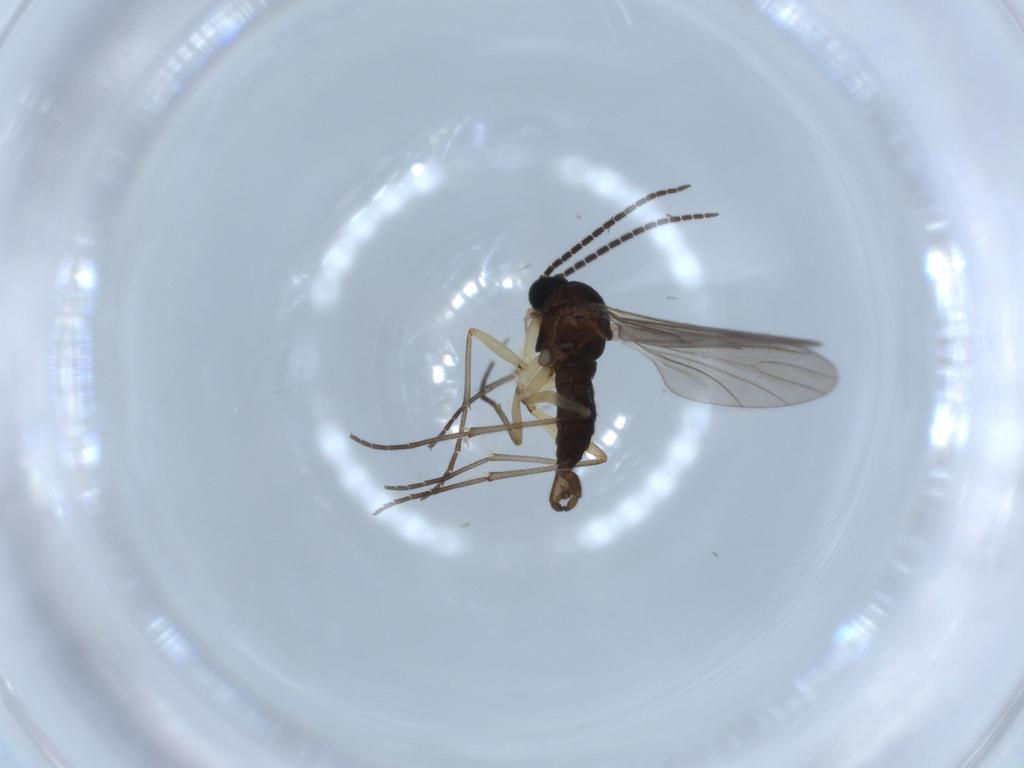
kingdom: Animalia
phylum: Arthropoda
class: Insecta
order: Diptera
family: Sciaridae
